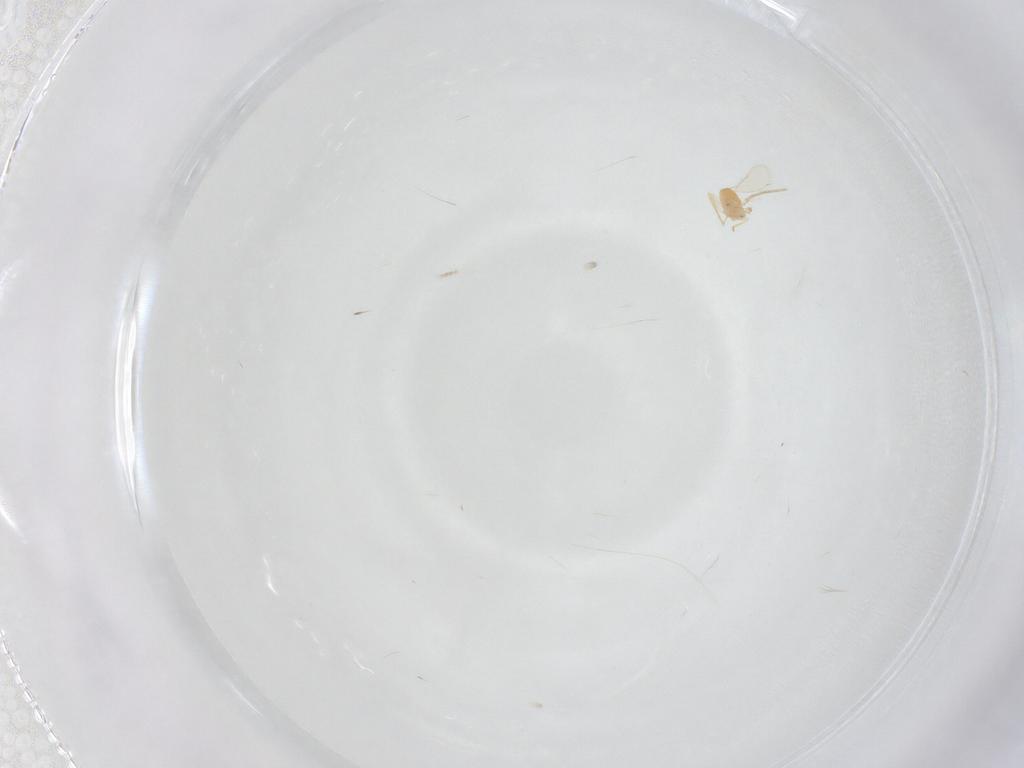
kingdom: Animalia
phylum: Arthropoda
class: Insecta
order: Hymenoptera
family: Aphelinidae
